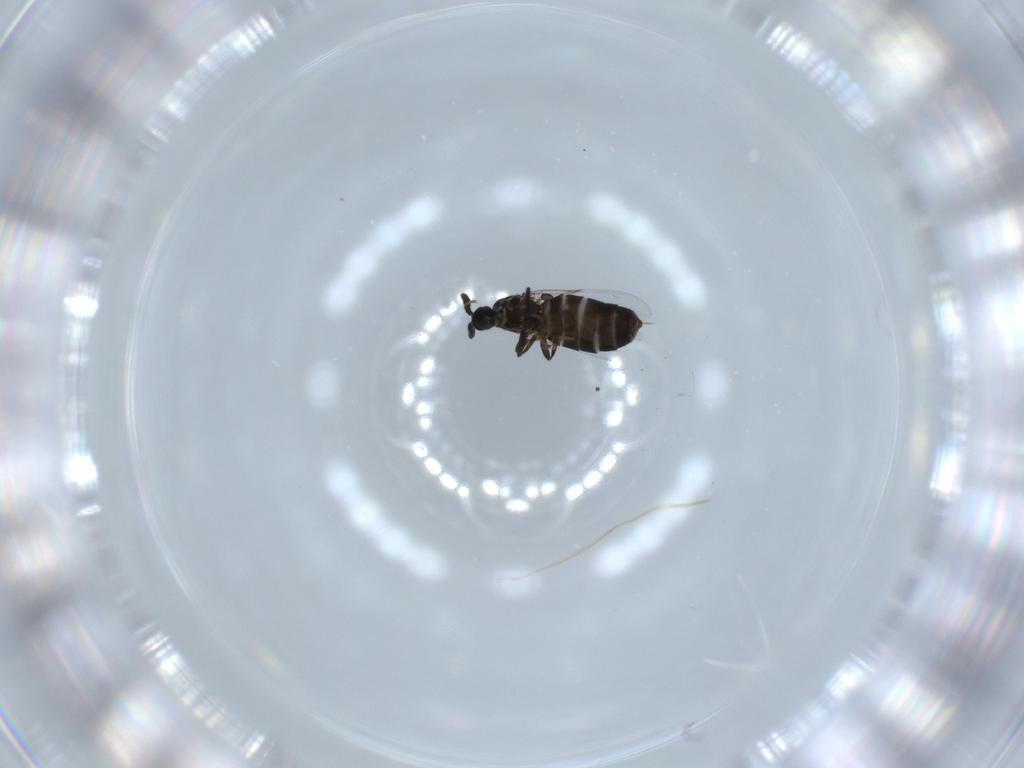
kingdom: Animalia
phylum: Arthropoda
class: Insecta
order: Diptera
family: Scatopsidae
